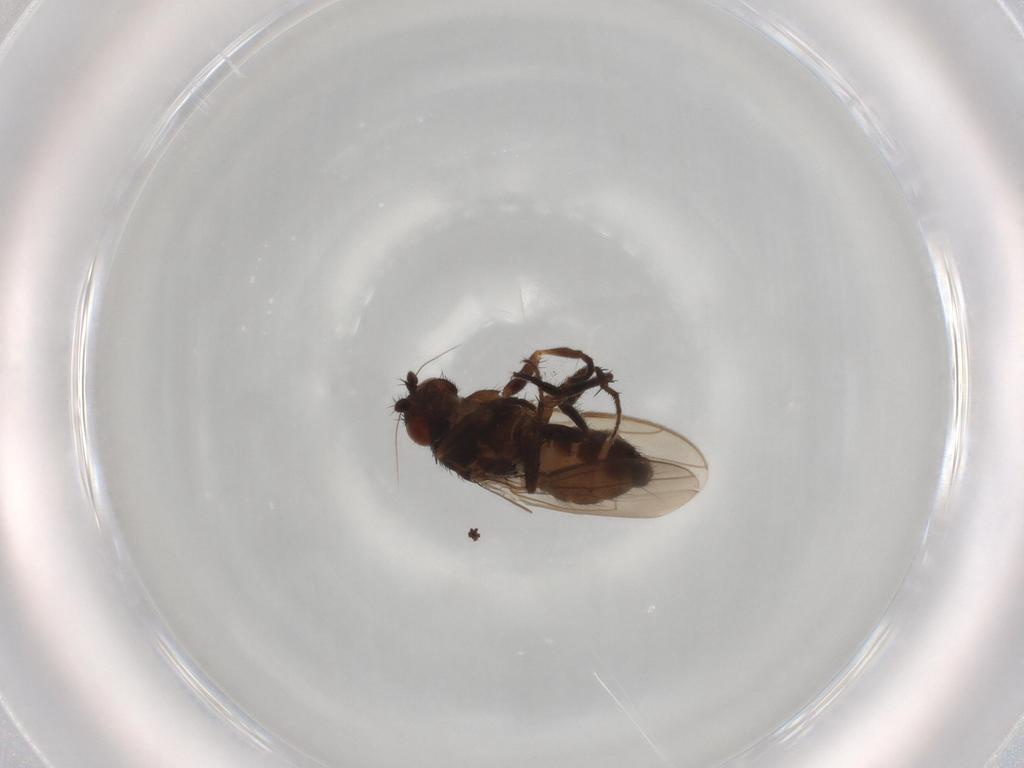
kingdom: Animalia
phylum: Arthropoda
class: Insecta
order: Diptera
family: Sphaeroceridae
